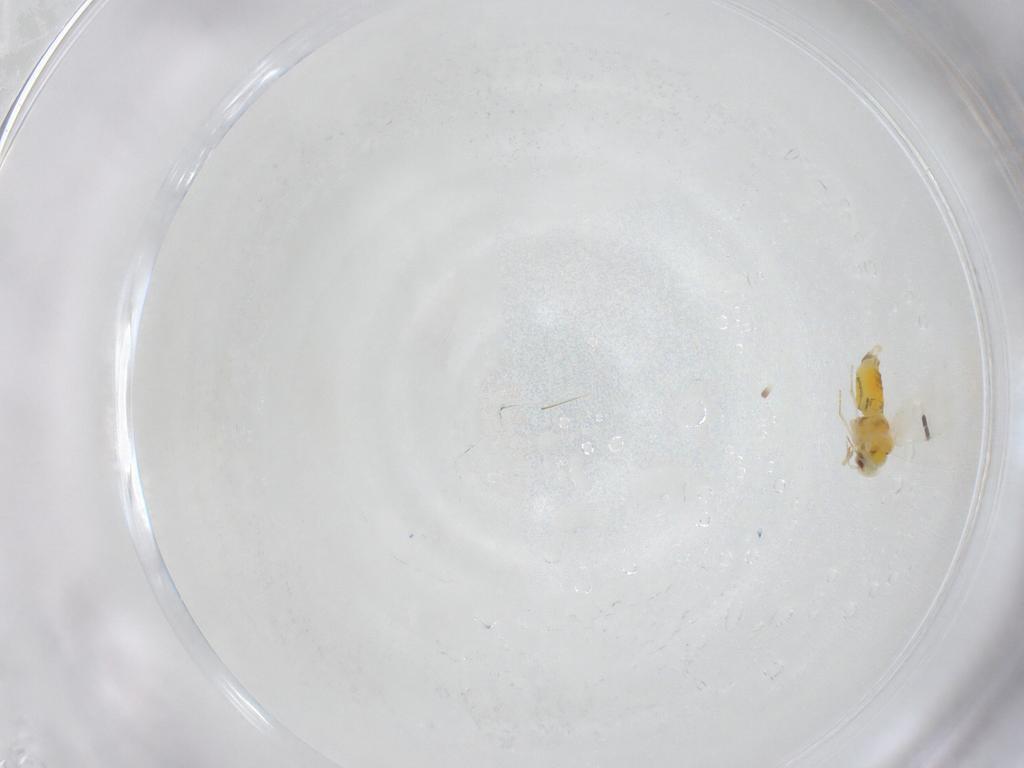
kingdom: Animalia
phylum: Arthropoda
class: Insecta
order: Hemiptera
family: Aleyrodidae
